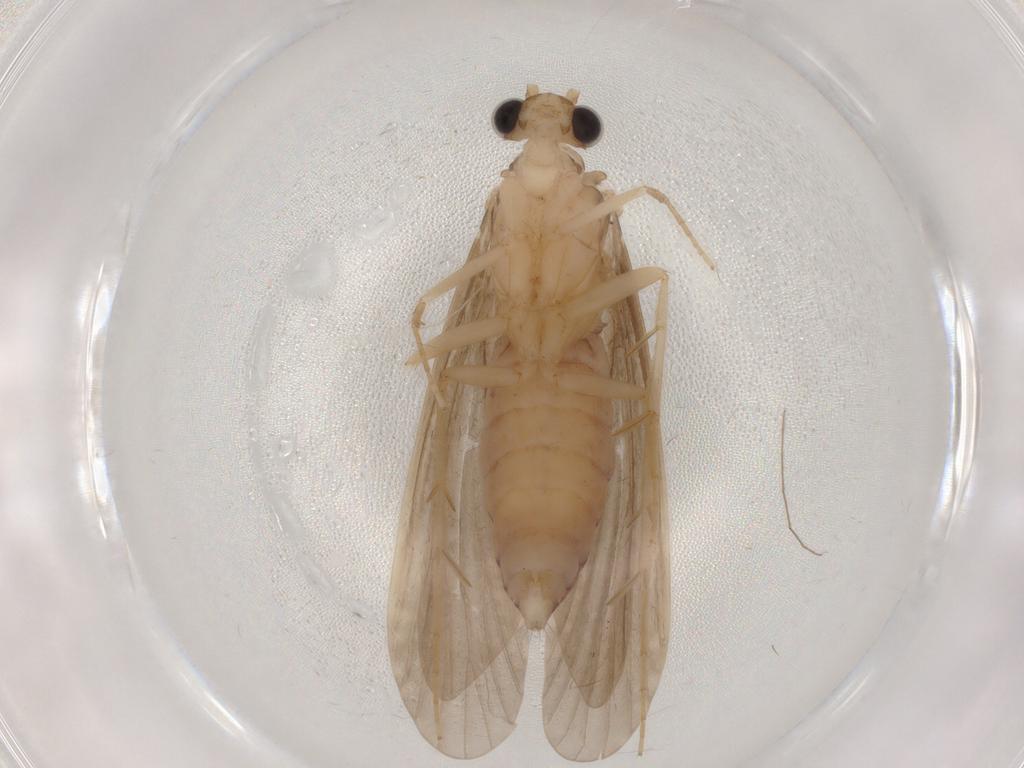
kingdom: Animalia
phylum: Arthropoda
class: Insecta
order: Trichoptera
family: Ecnomidae
